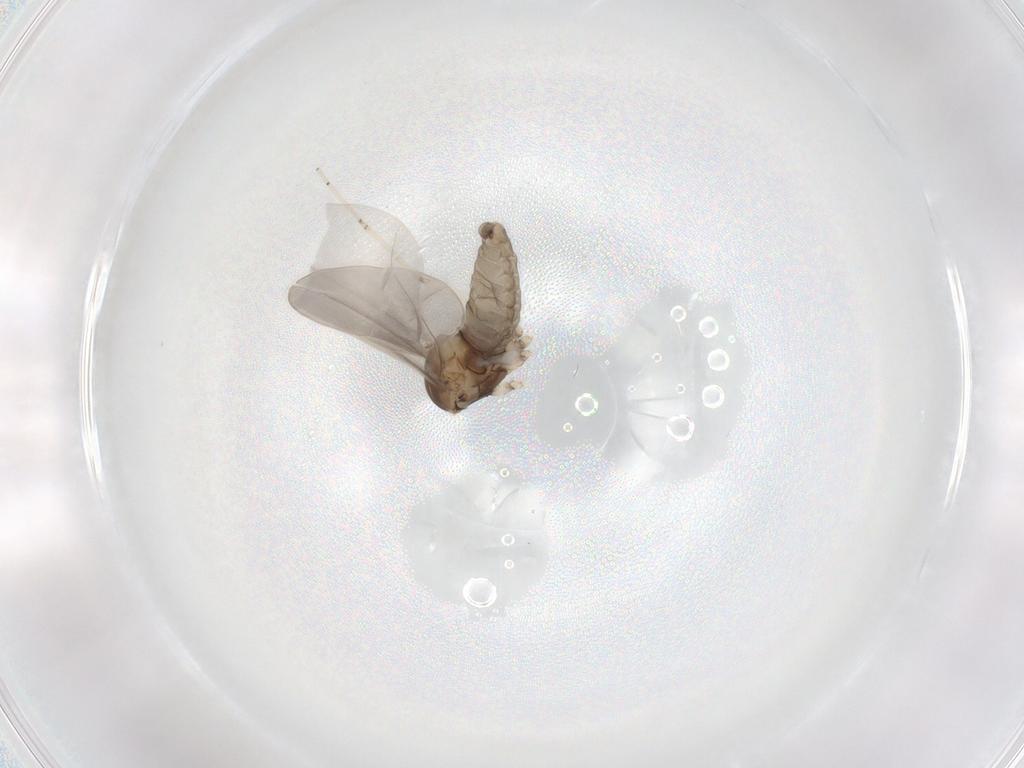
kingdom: Animalia
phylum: Arthropoda
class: Insecta
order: Diptera
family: Cecidomyiidae
